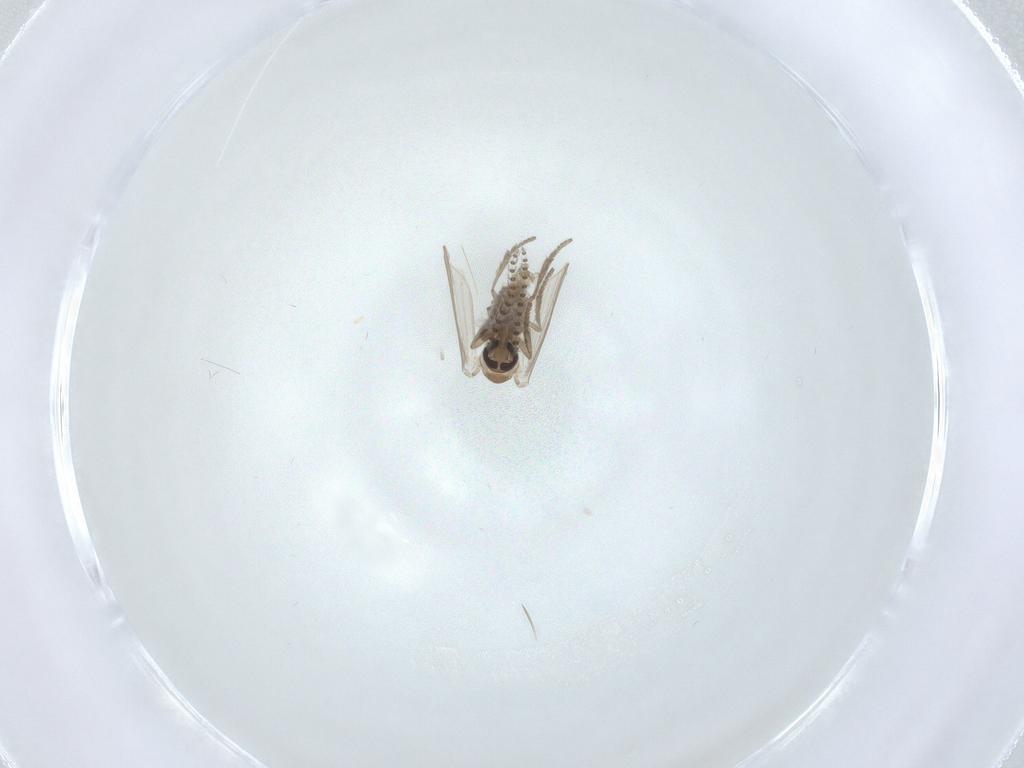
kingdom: Animalia
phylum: Arthropoda
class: Insecta
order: Diptera
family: Psychodidae
